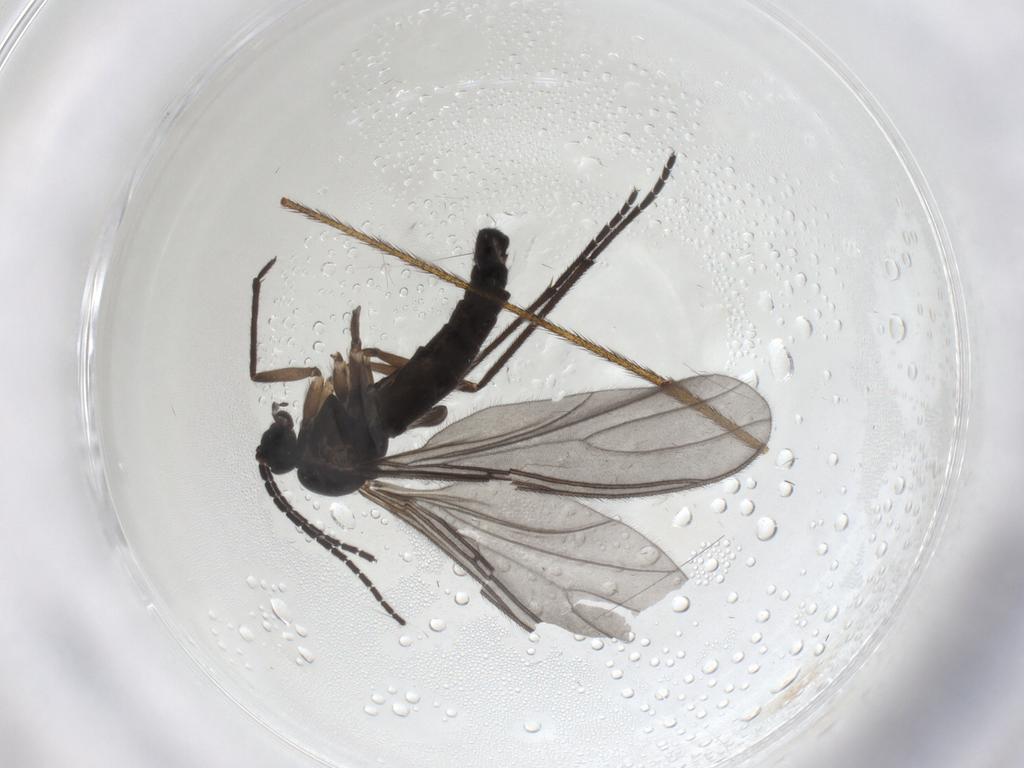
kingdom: Animalia
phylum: Arthropoda
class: Insecta
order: Diptera
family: Sciaridae
